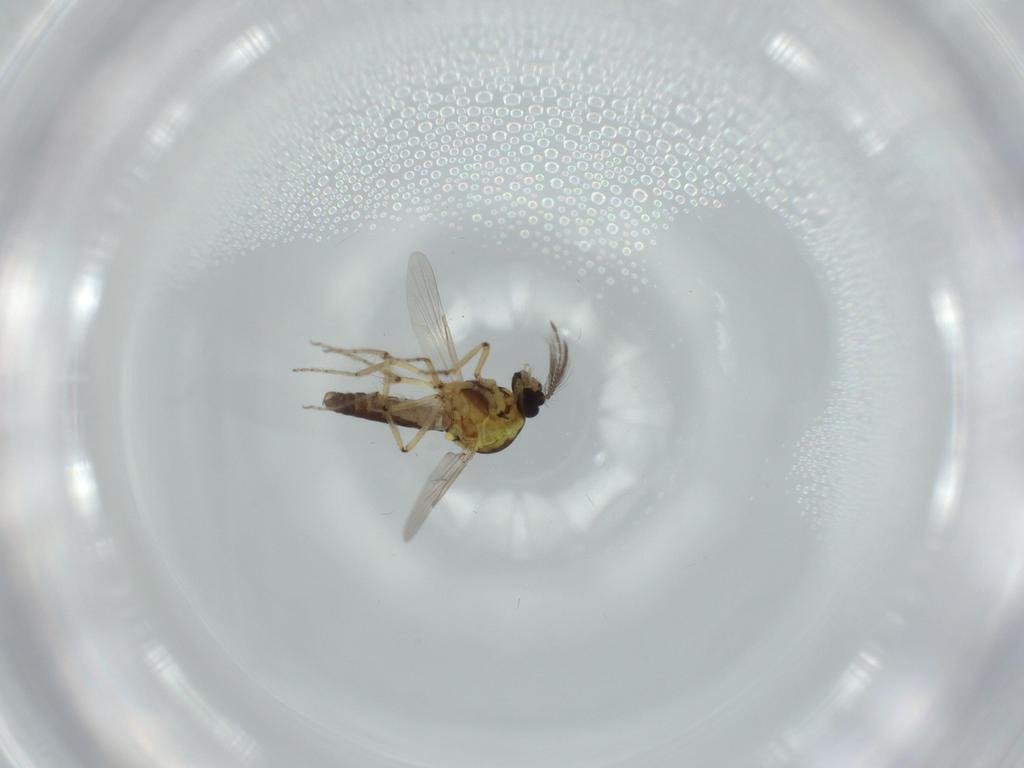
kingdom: Animalia
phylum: Arthropoda
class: Insecta
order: Diptera
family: Ceratopogonidae
